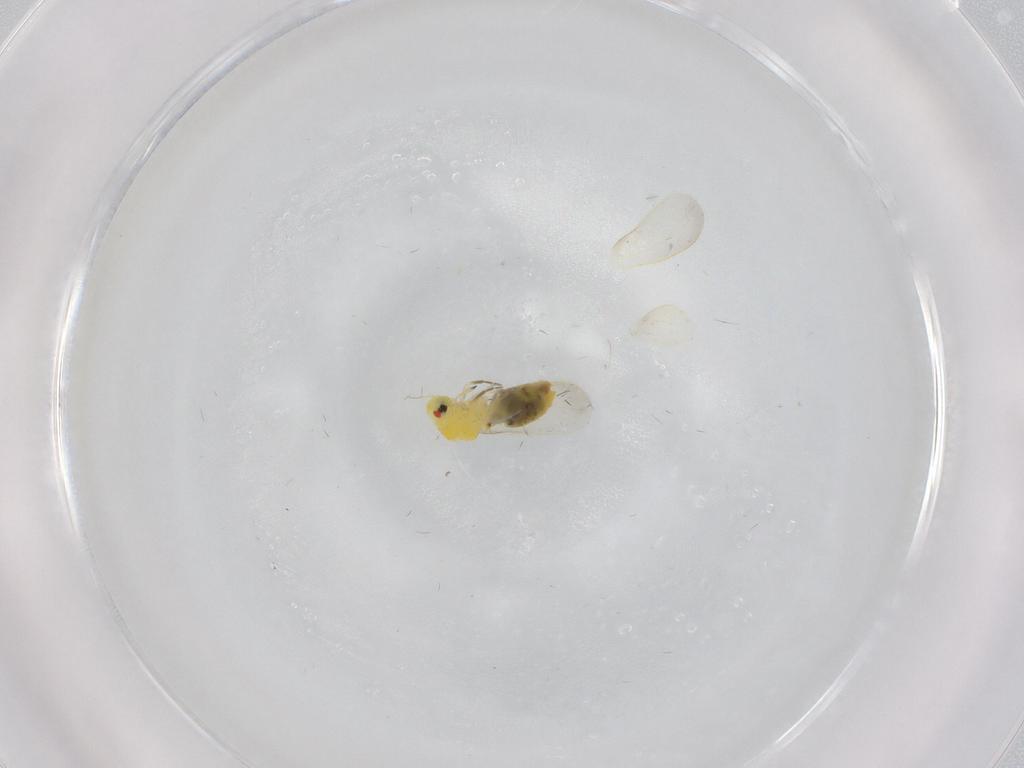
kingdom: Animalia
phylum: Arthropoda
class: Insecta
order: Hemiptera
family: Aleyrodidae
